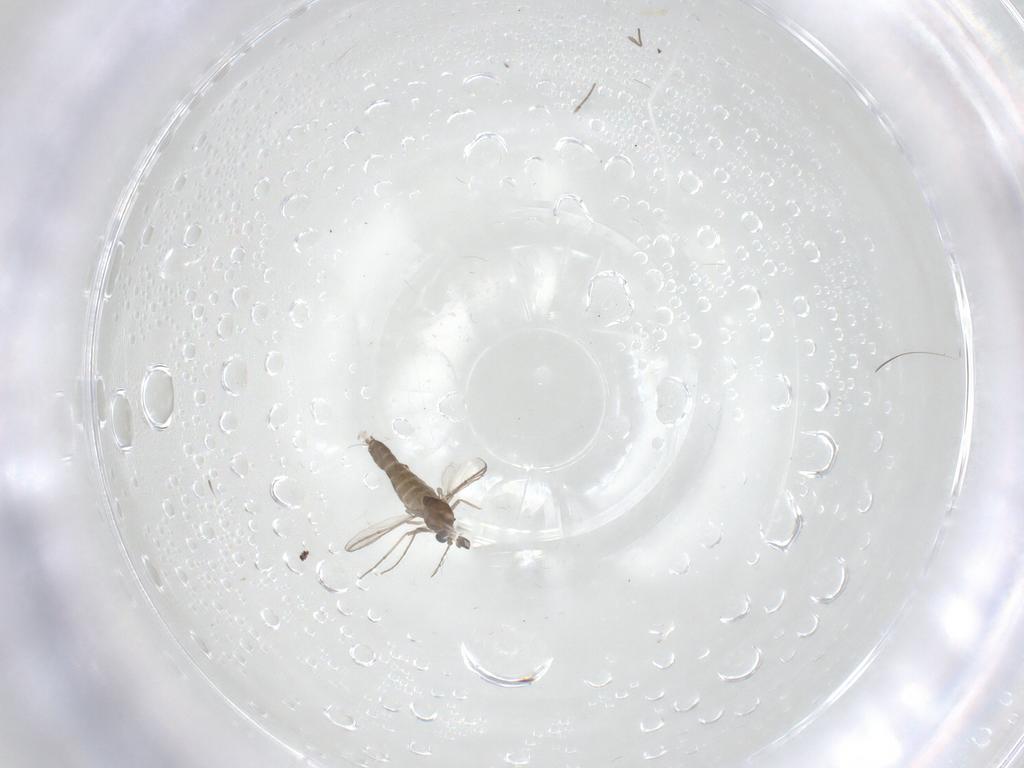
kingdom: Animalia
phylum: Arthropoda
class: Insecta
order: Diptera
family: Chironomidae
